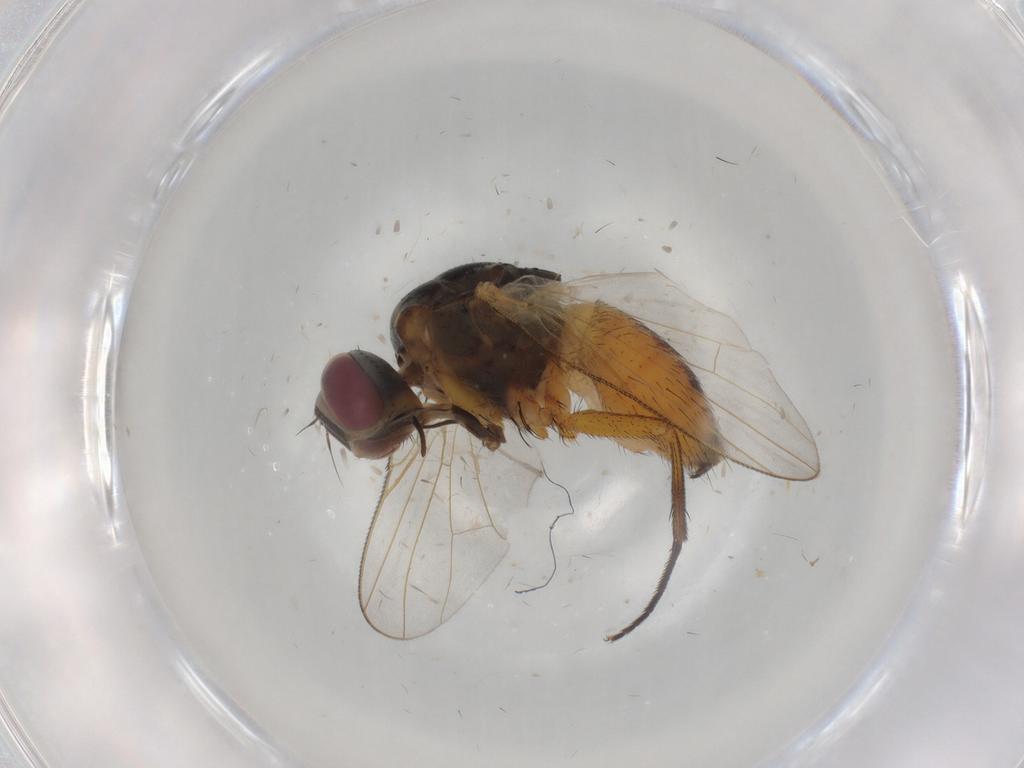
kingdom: Animalia
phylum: Arthropoda
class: Insecta
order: Diptera
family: Muscidae
